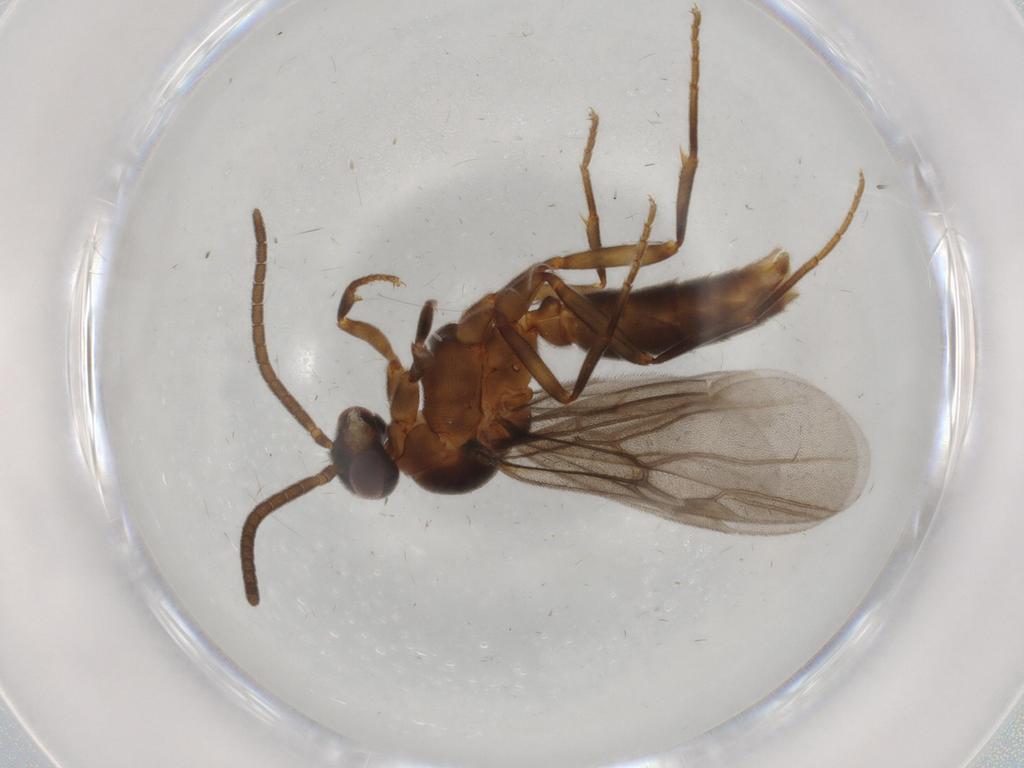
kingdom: Animalia
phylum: Arthropoda
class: Insecta
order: Hymenoptera
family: Formicidae
